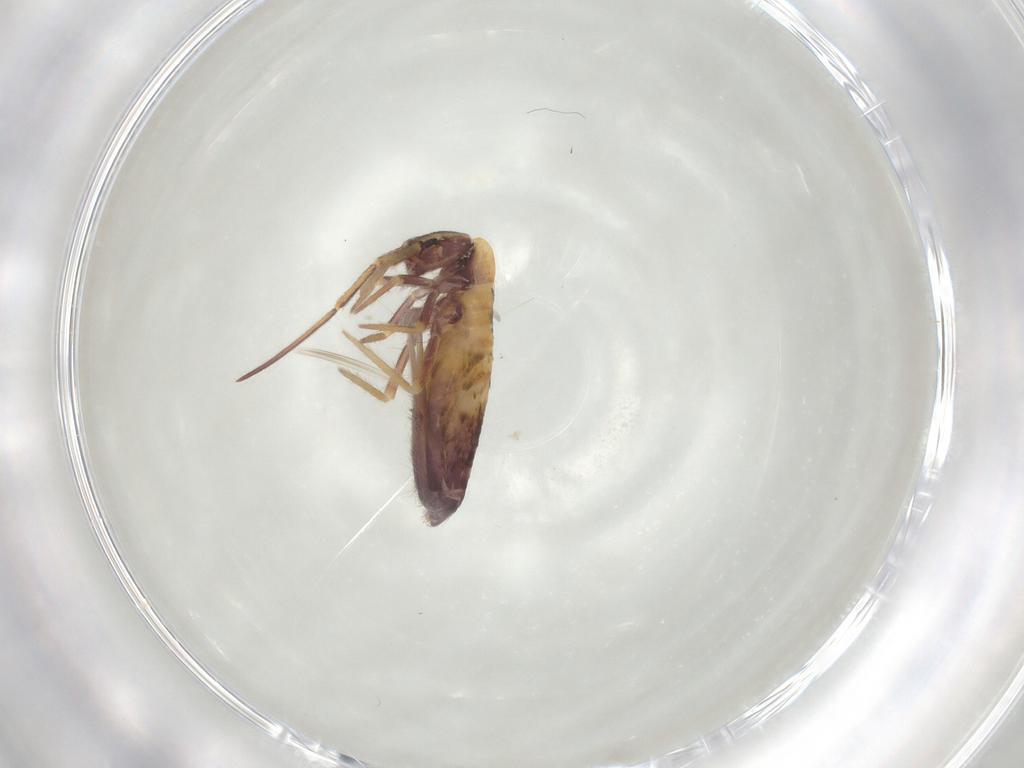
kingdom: Animalia
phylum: Arthropoda
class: Collembola
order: Entomobryomorpha
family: Entomobryidae
